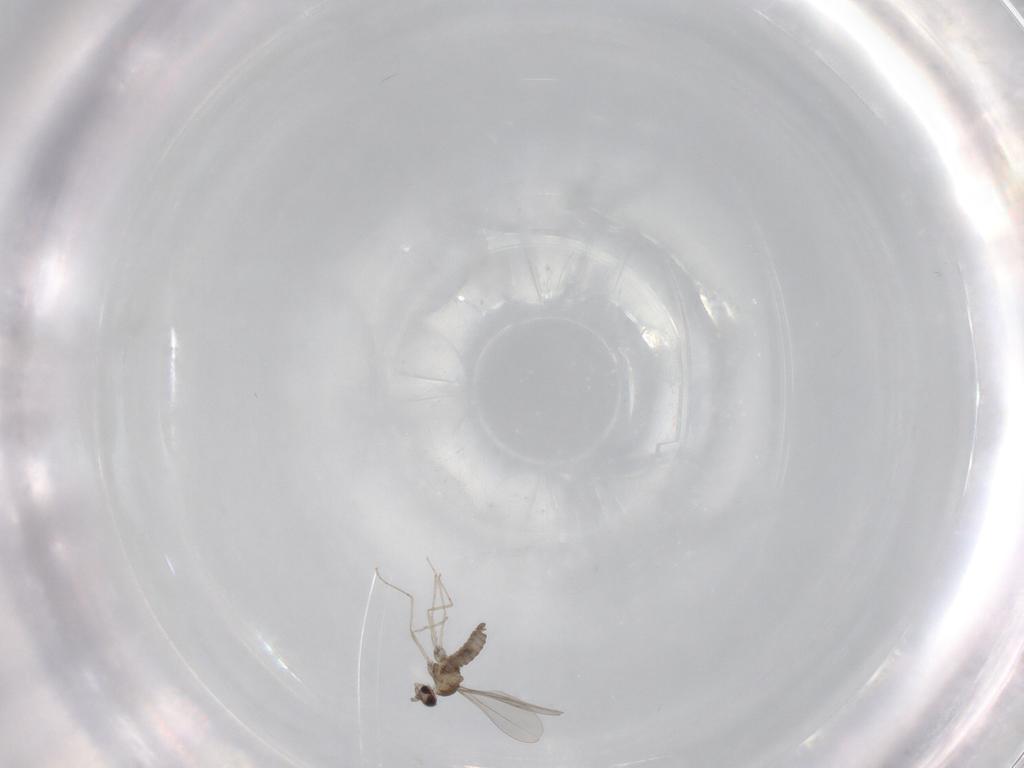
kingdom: Animalia
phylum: Arthropoda
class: Insecta
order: Diptera
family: Cecidomyiidae
